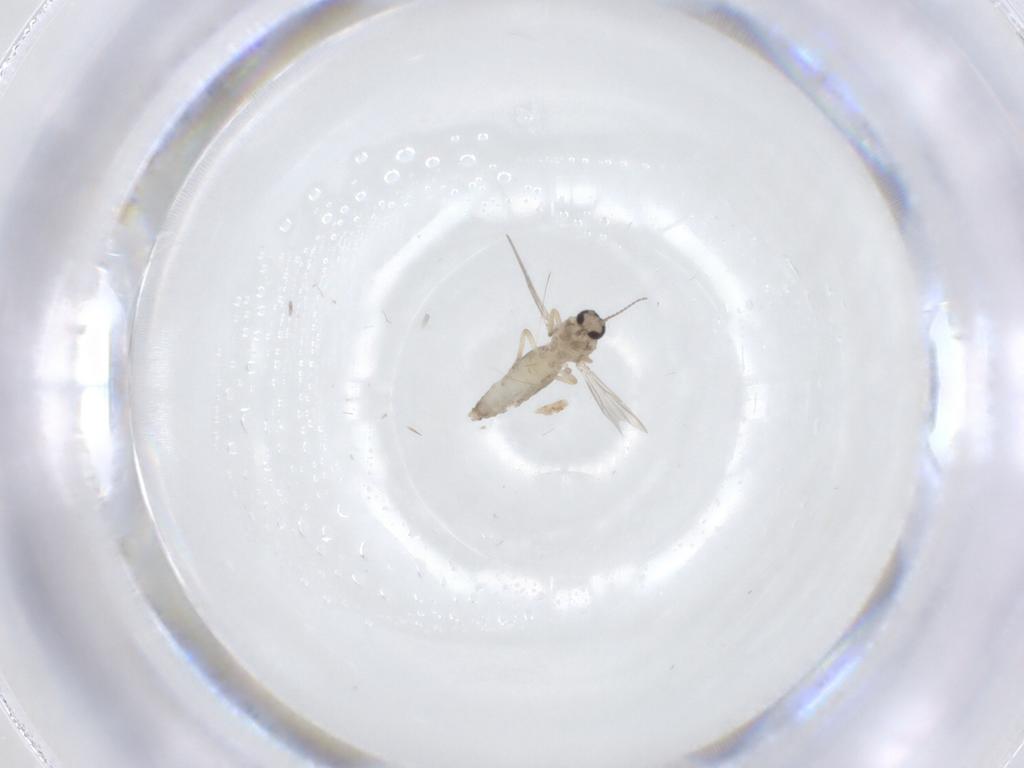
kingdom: Animalia
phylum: Arthropoda
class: Insecta
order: Diptera
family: Ceratopogonidae
